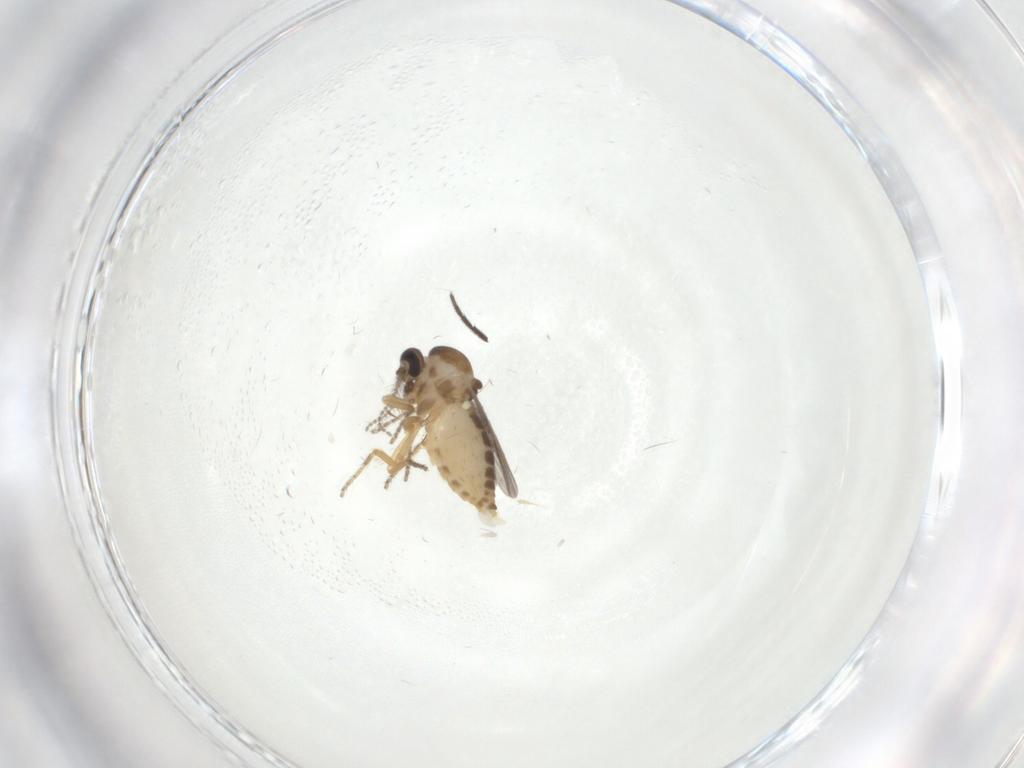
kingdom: Animalia
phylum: Arthropoda
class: Insecta
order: Diptera
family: Ceratopogonidae
